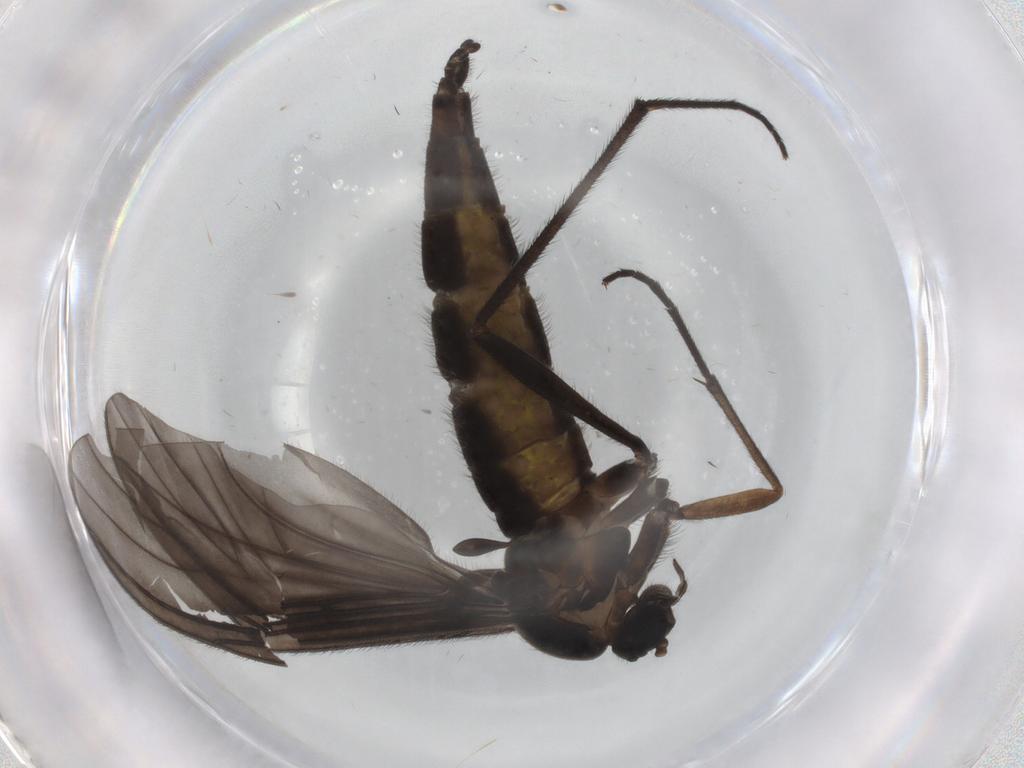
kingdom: Animalia
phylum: Arthropoda
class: Insecta
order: Diptera
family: Sciaridae
